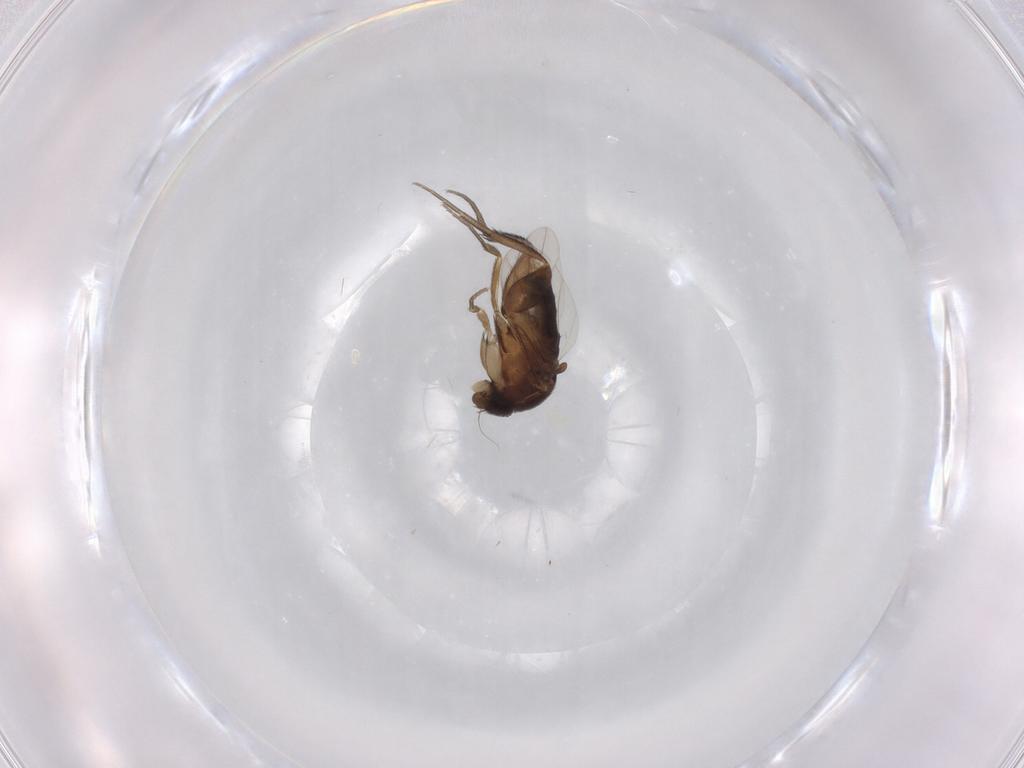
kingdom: Animalia
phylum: Arthropoda
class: Insecta
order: Diptera
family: Phoridae
